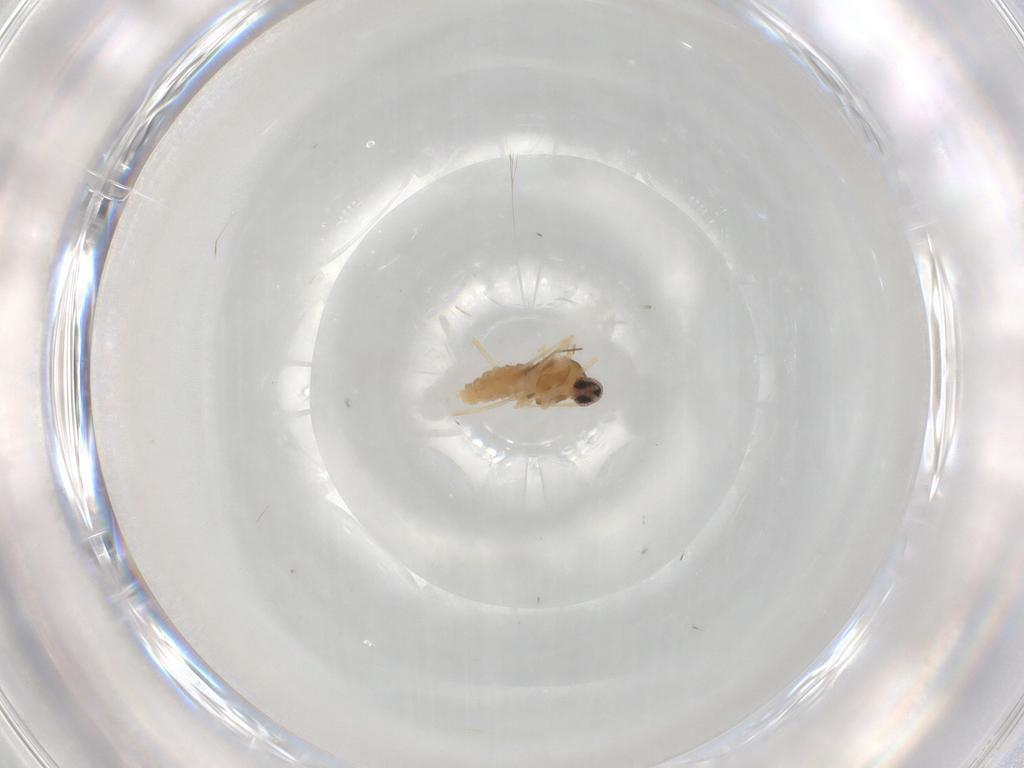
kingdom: Animalia
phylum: Arthropoda
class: Insecta
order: Diptera
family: Cecidomyiidae
